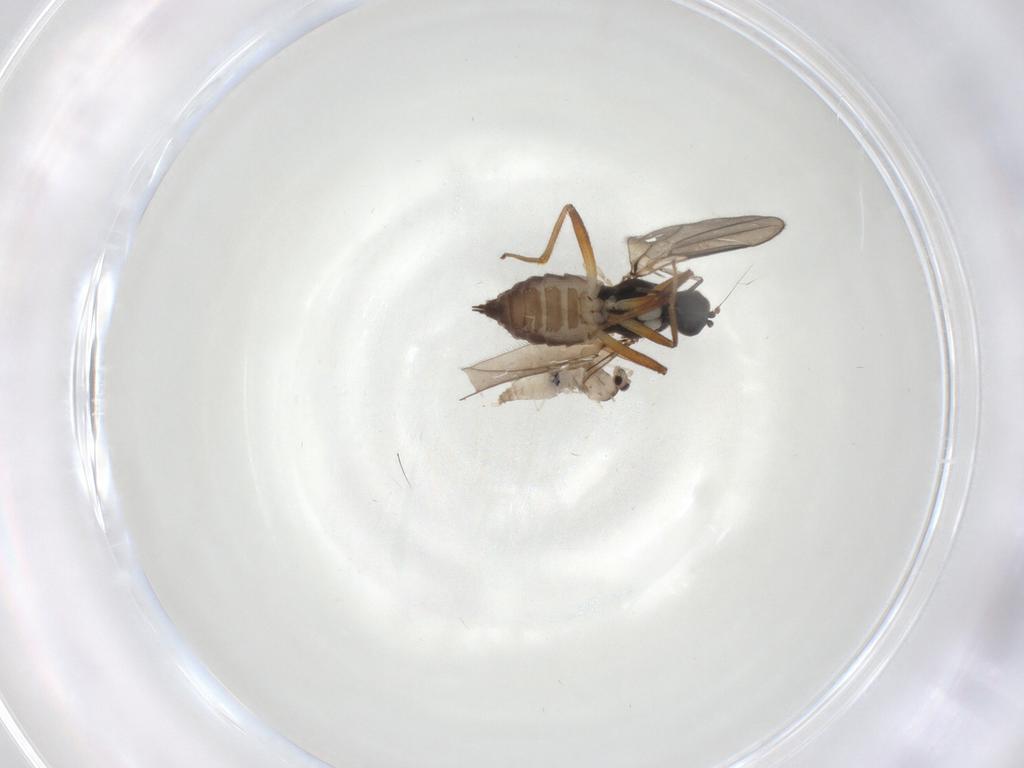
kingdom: Animalia
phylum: Arthropoda
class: Insecta
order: Diptera
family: Cecidomyiidae
